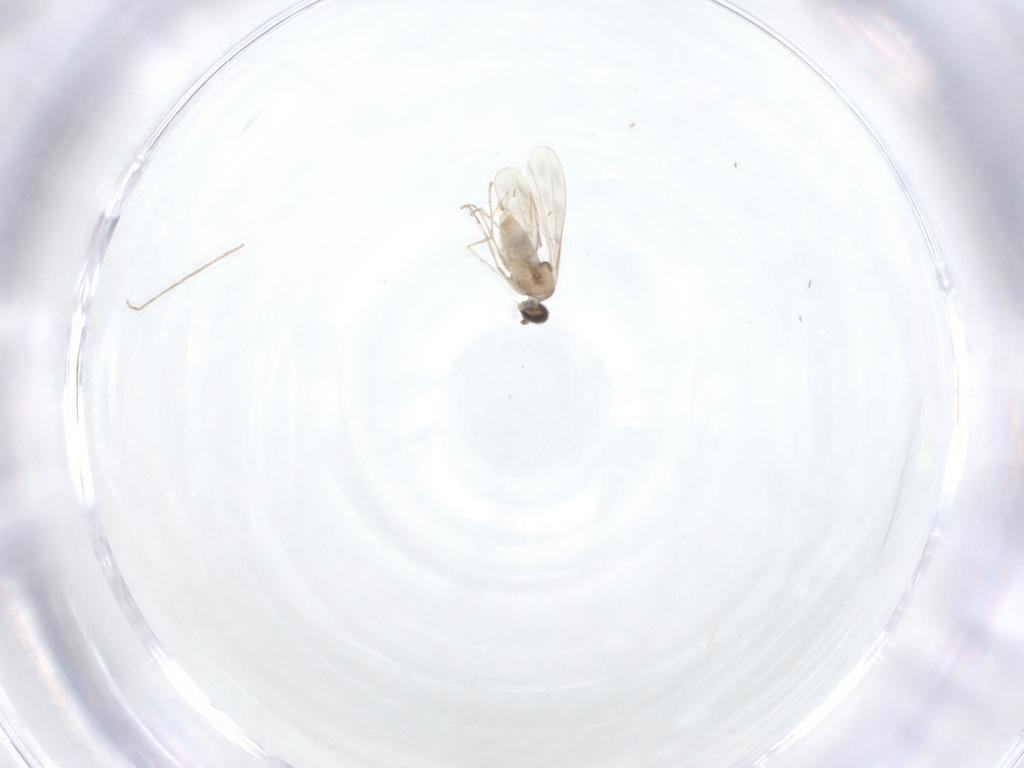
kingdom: Animalia
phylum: Arthropoda
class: Insecta
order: Diptera
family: Cecidomyiidae
